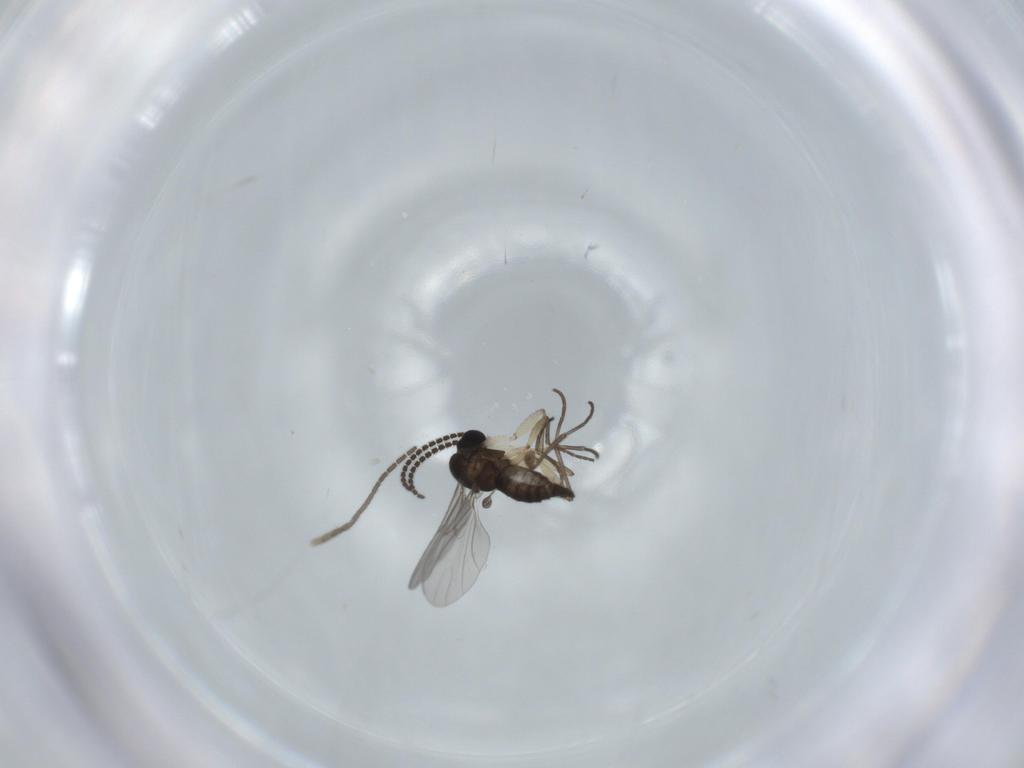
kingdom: Animalia
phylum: Arthropoda
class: Insecta
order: Diptera
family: Sciaridae
